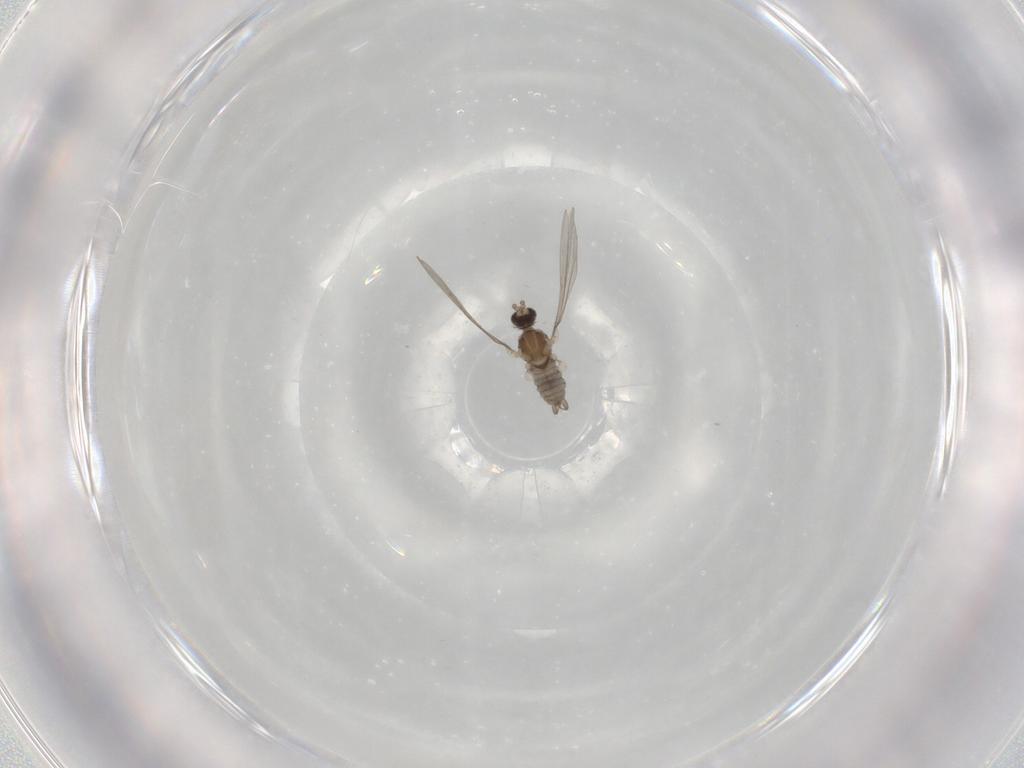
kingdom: Animalia
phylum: Arthropoda
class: Insecta
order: Diptera
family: Cecidomyiidae
